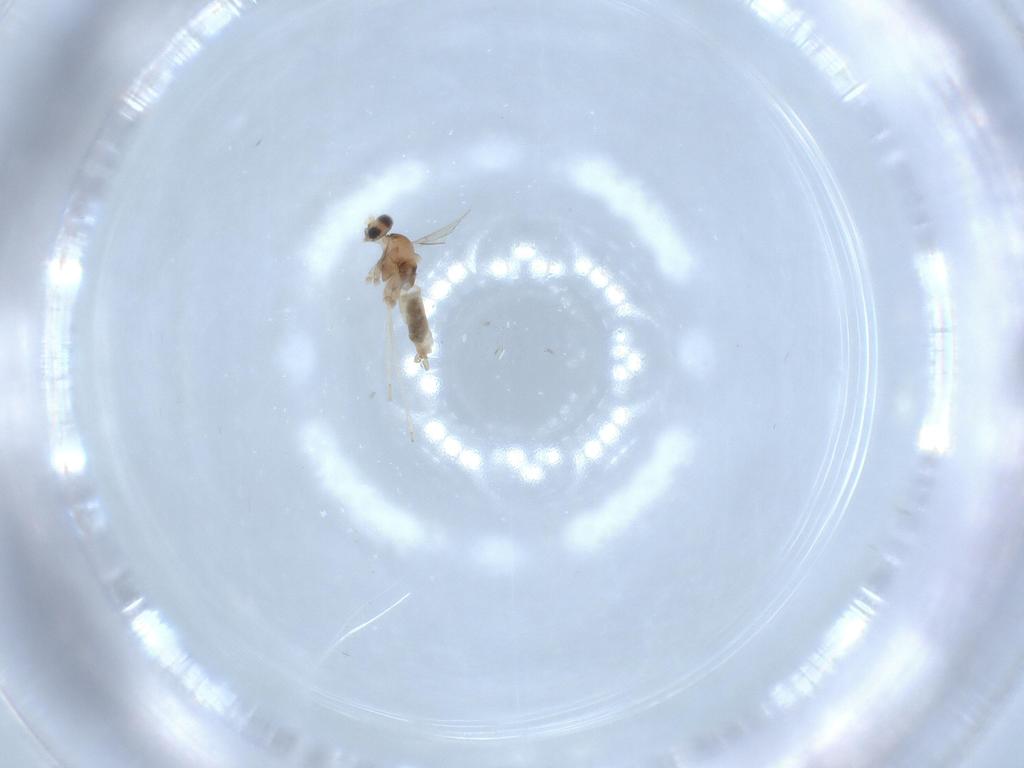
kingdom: Animalia
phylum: Arthropoda
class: Insecta
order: Diptera
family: Cecidomyiidae
